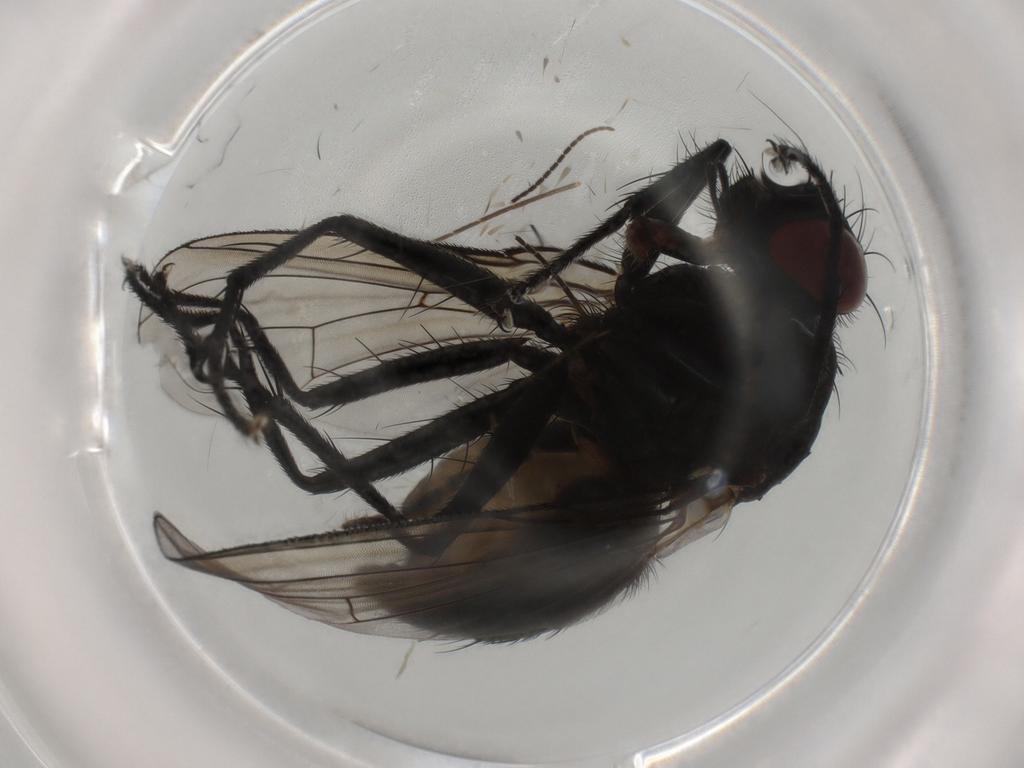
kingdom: Animalia
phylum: Arthropoda
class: Insecta
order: Diptera
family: Muscidae
